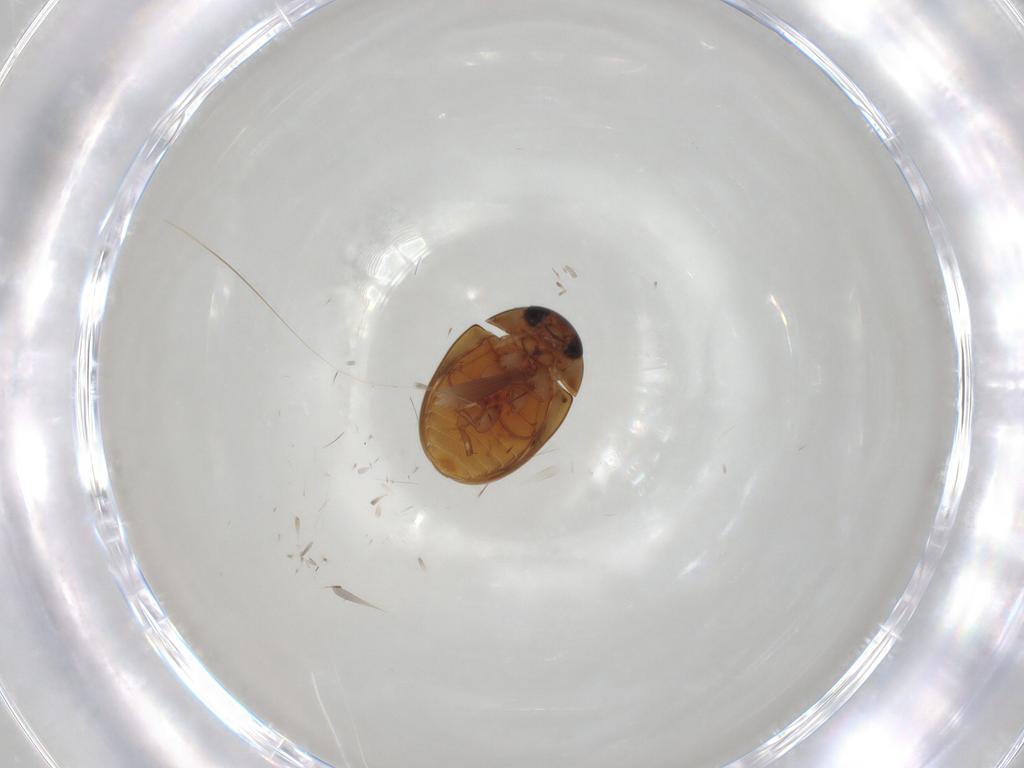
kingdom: Animalia
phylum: Arthropoda
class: Insecta
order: Coleoptera
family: Phalacridae
